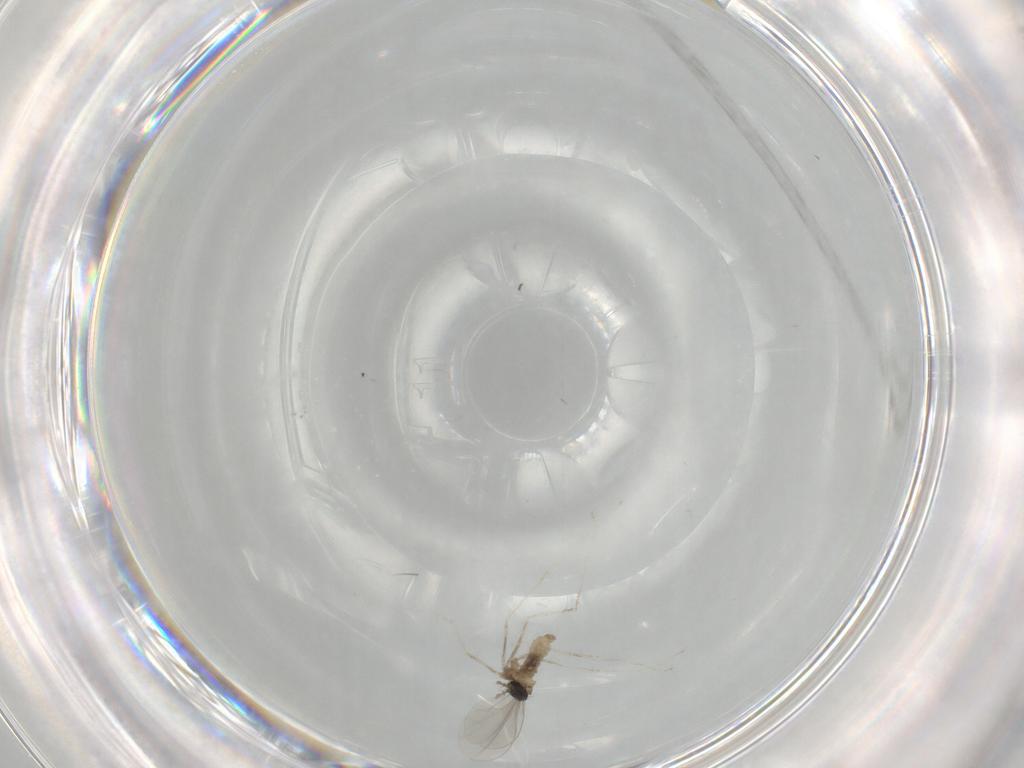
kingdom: Animalia
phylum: Arthropoda
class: Insecta
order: Diptera
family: Cecidomyiidae
